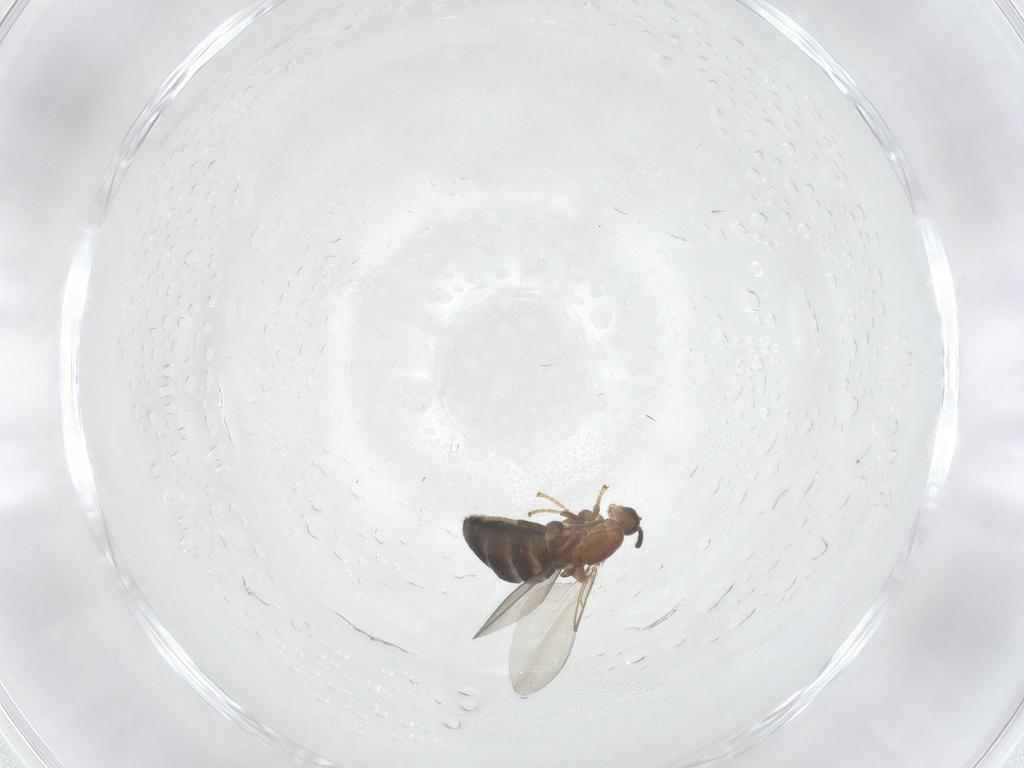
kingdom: Animalia
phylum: Arthropoda
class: Insecta
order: Diptera
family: Scatopsidae
